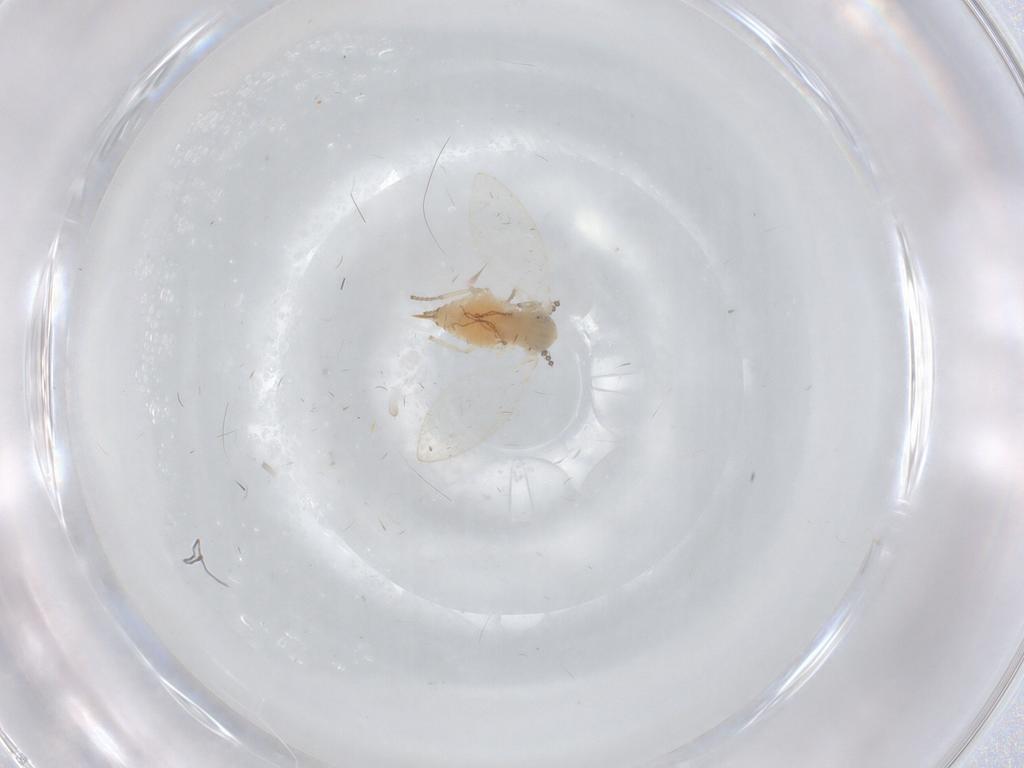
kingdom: Animalia
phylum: Arthropoda
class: Insecta
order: Diptera
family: Psychodidae
